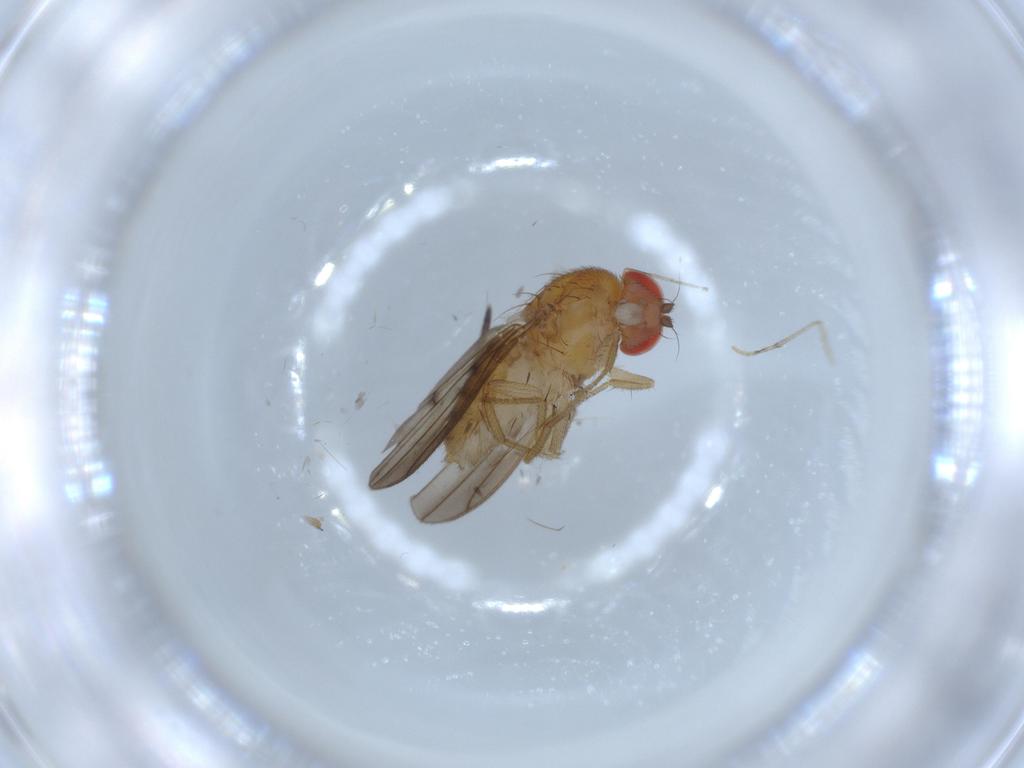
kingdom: Animalia
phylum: Arthropoda
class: Insecta
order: Diptera
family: Drosophilidae
